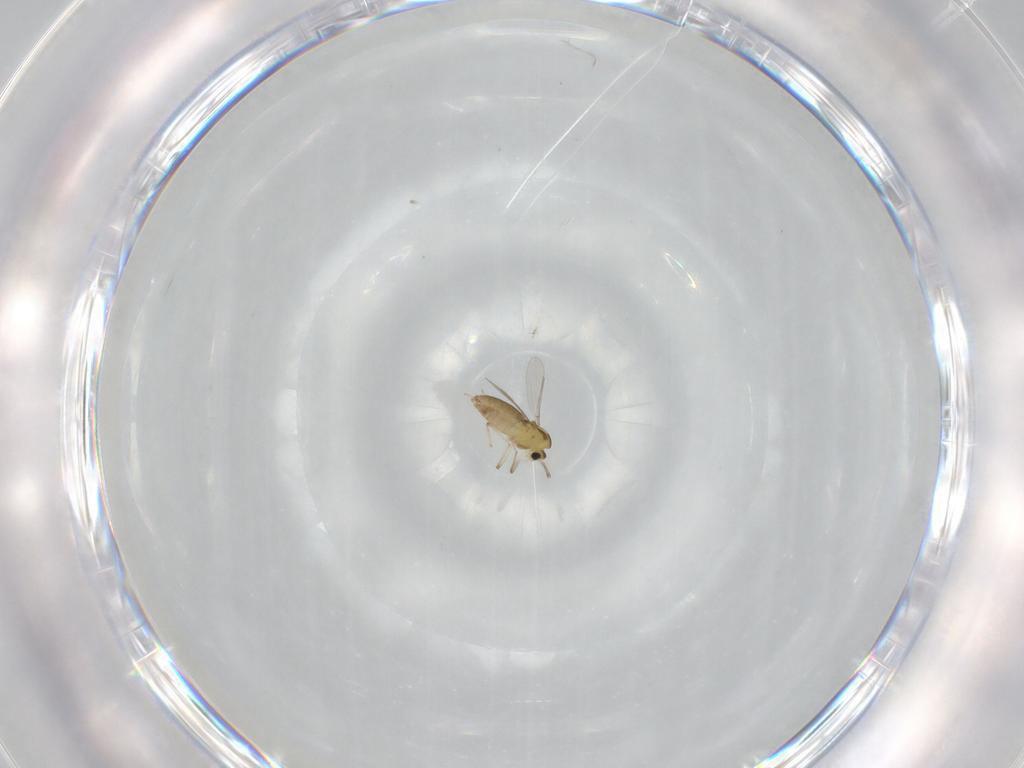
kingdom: Animalia
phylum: Arthropoda
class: Insecta
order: Diptera
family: Chironomidae
